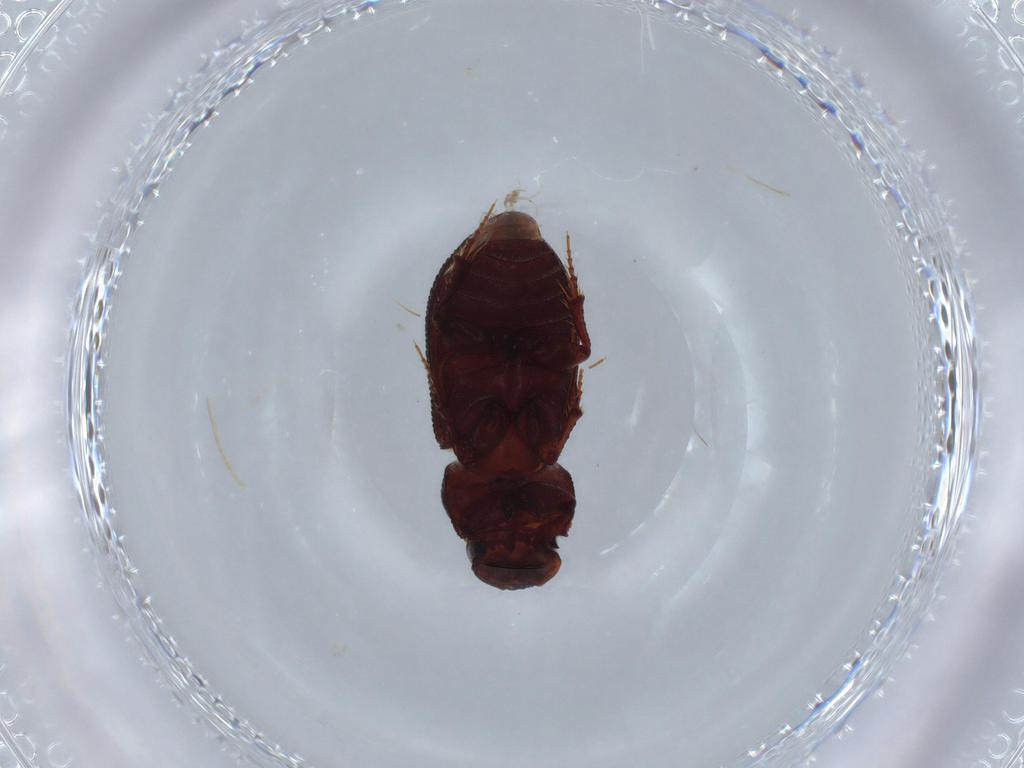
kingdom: Animalia
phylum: Arthropoda
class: Insecta
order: Coleoptera
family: Scarabaeidae
